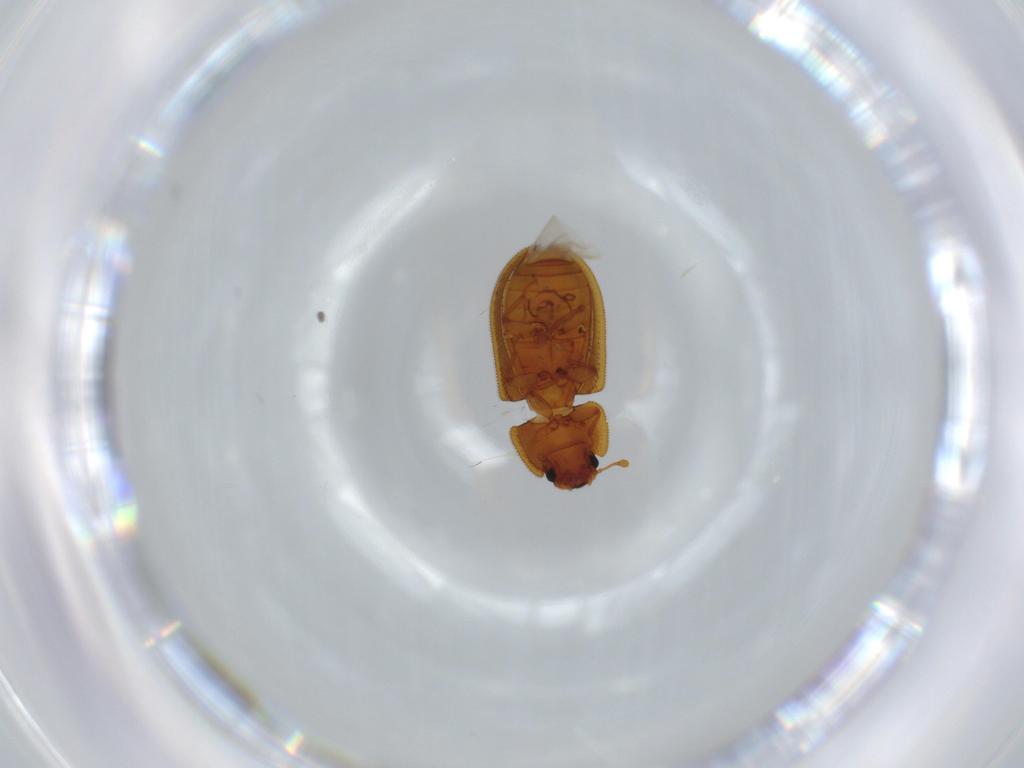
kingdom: Animalia
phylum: Arthropoda
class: Insecta
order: Coleoptera
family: Zopheridae
